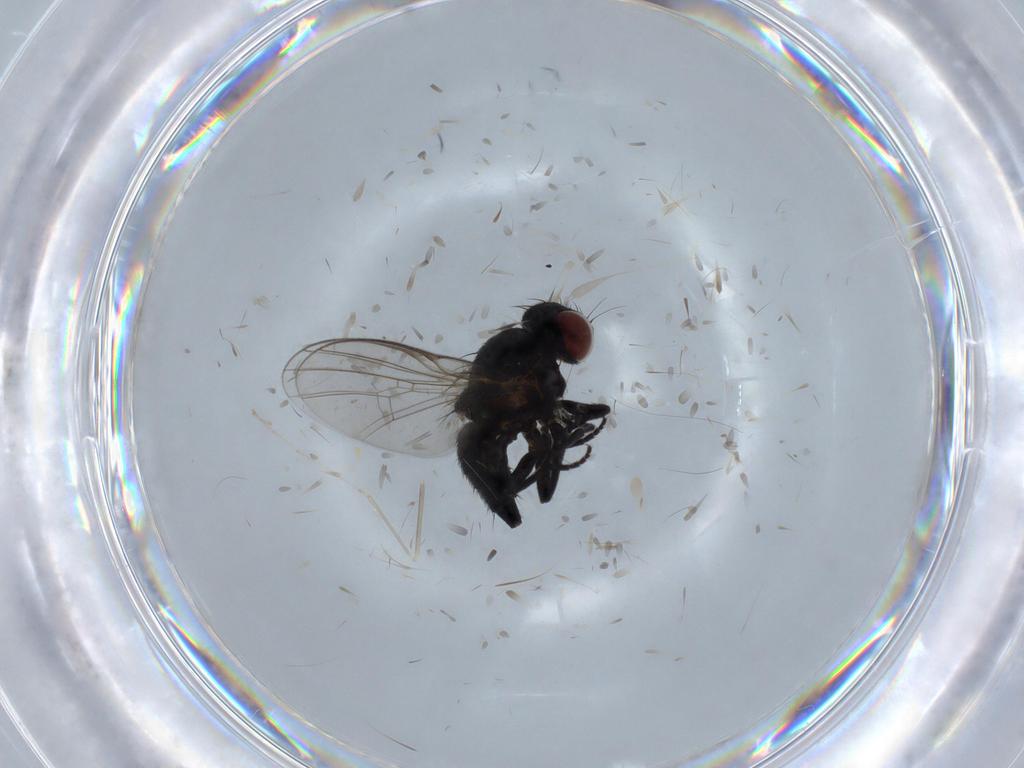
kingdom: Animalia
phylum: Arthropoda
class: Insecta
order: Diptera
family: Agromyzidae
